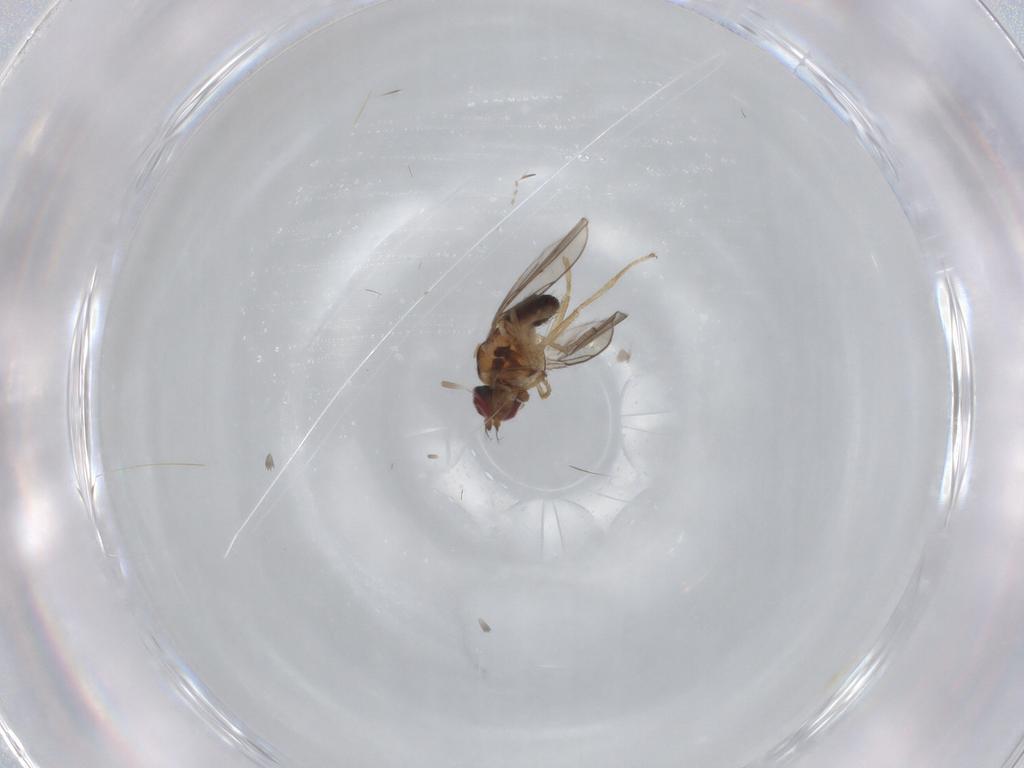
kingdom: Animalia
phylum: Arthropoda
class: Insecta
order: Diptera
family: Ephydridae
